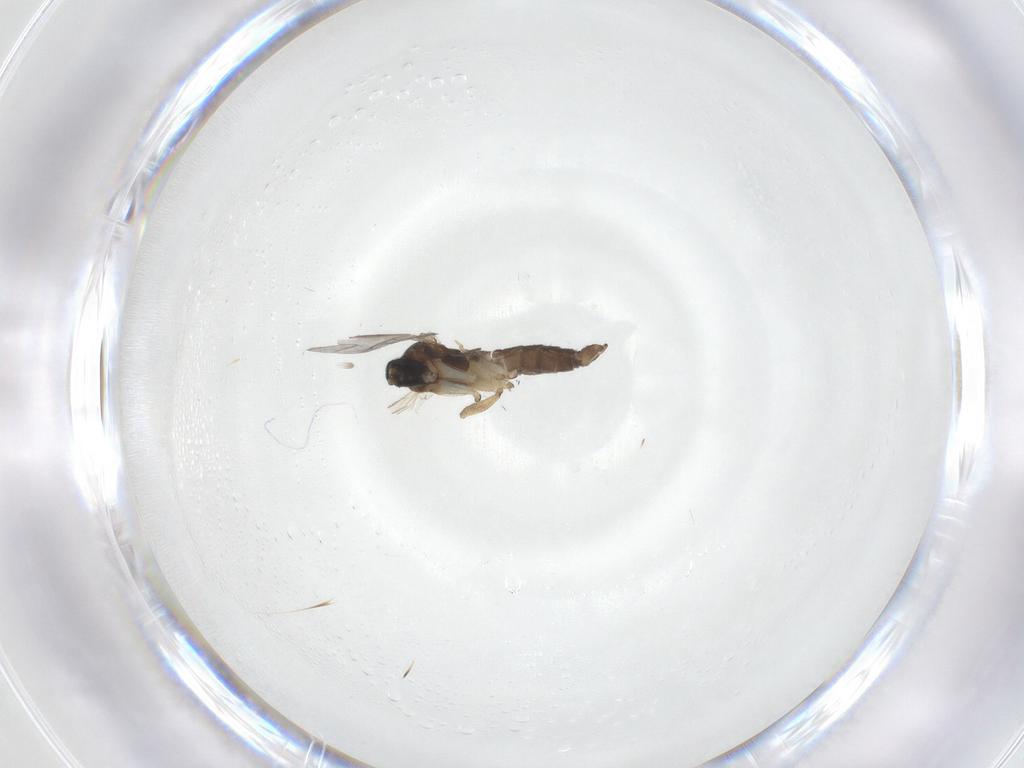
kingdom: Animalia
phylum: Arthropoda
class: Insecta
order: Diptera
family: Sciaridae
